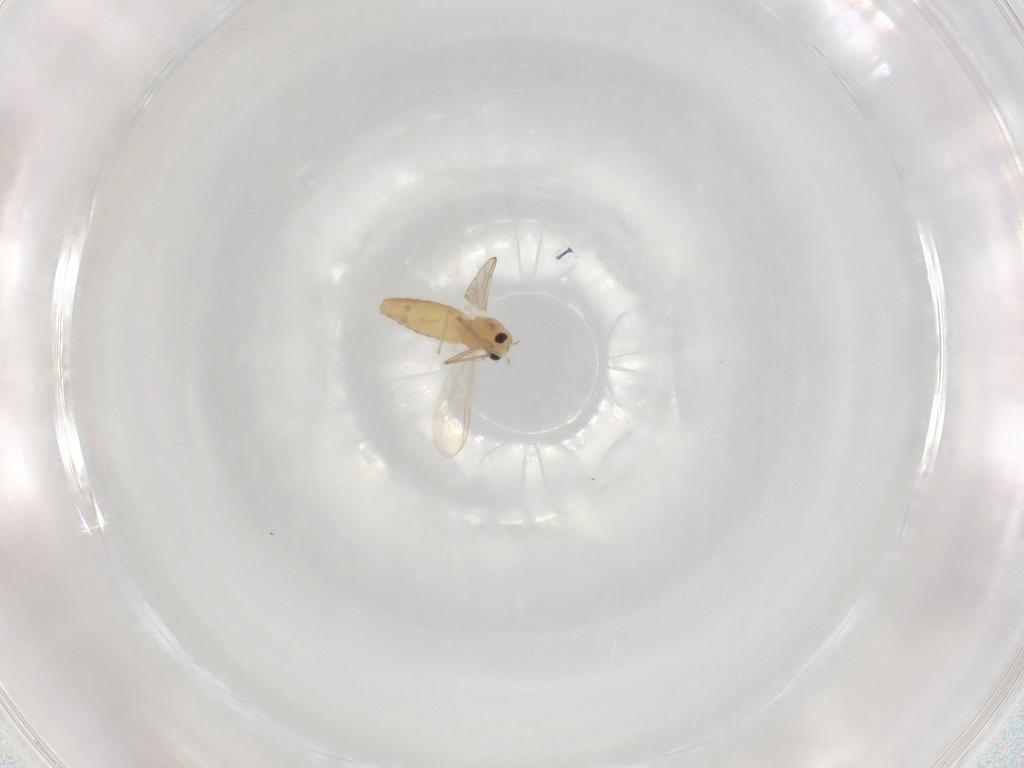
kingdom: Animalia
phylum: Arthropoda
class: Insecta
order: Diptera
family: Chironomidae
